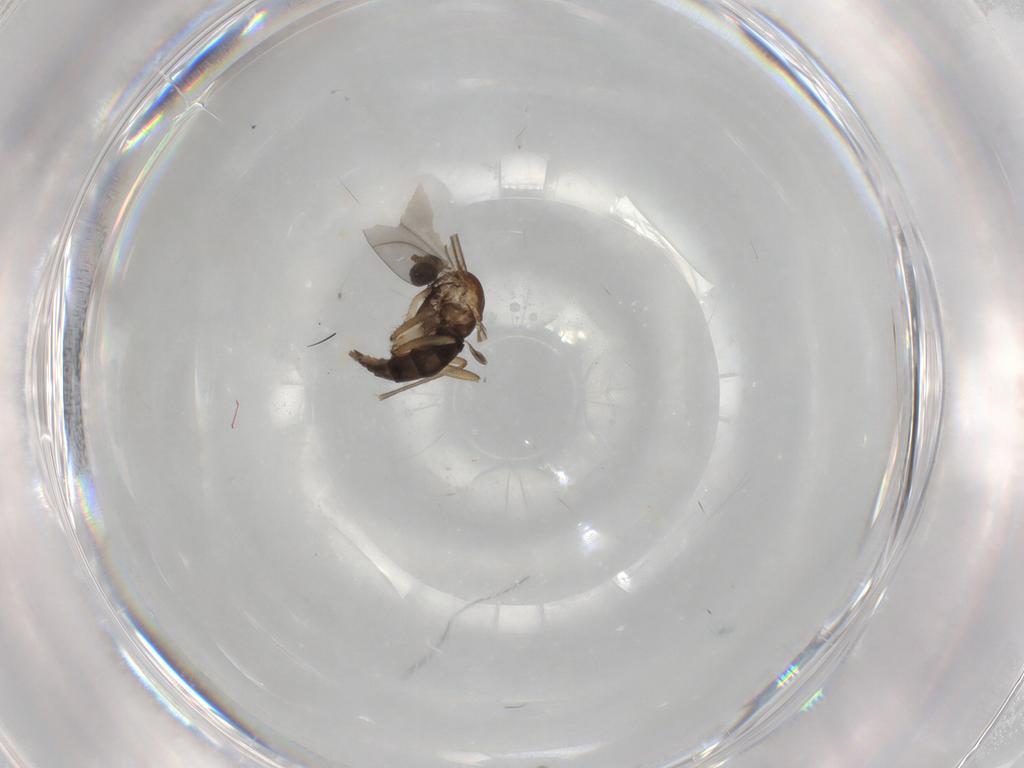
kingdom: Animalia
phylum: Arthropoda
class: Insecta
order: Diptera
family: Sciaridae
